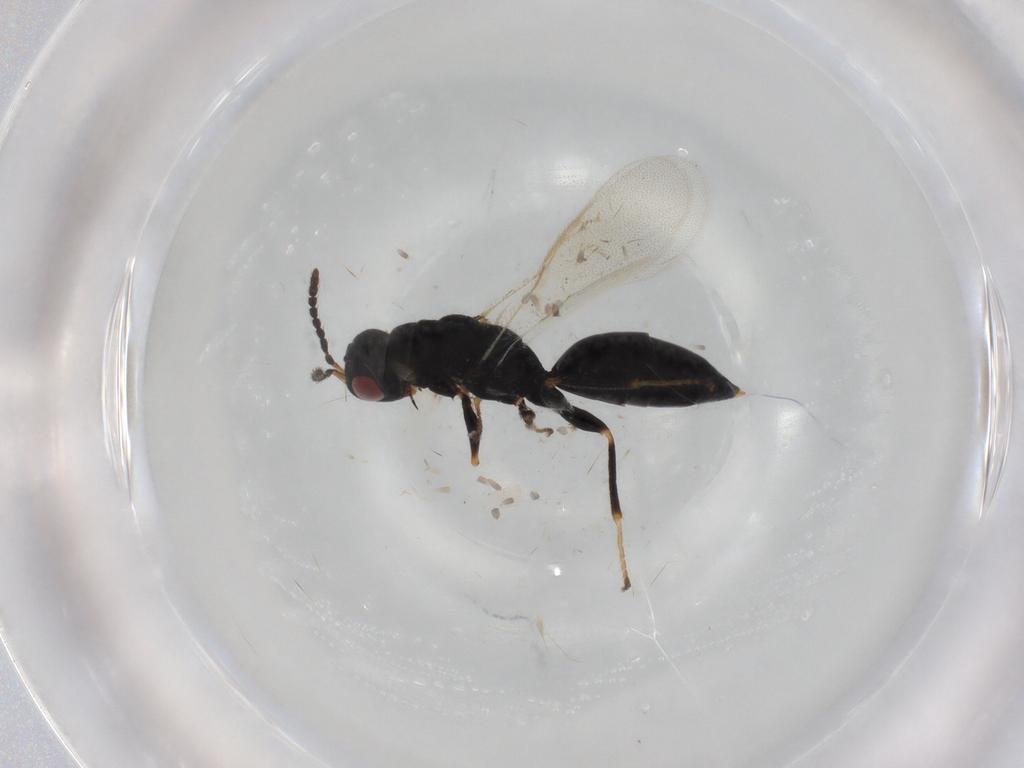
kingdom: Animalia
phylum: Arthropoda
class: Insecta
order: Hymenoptera
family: Braconidae
